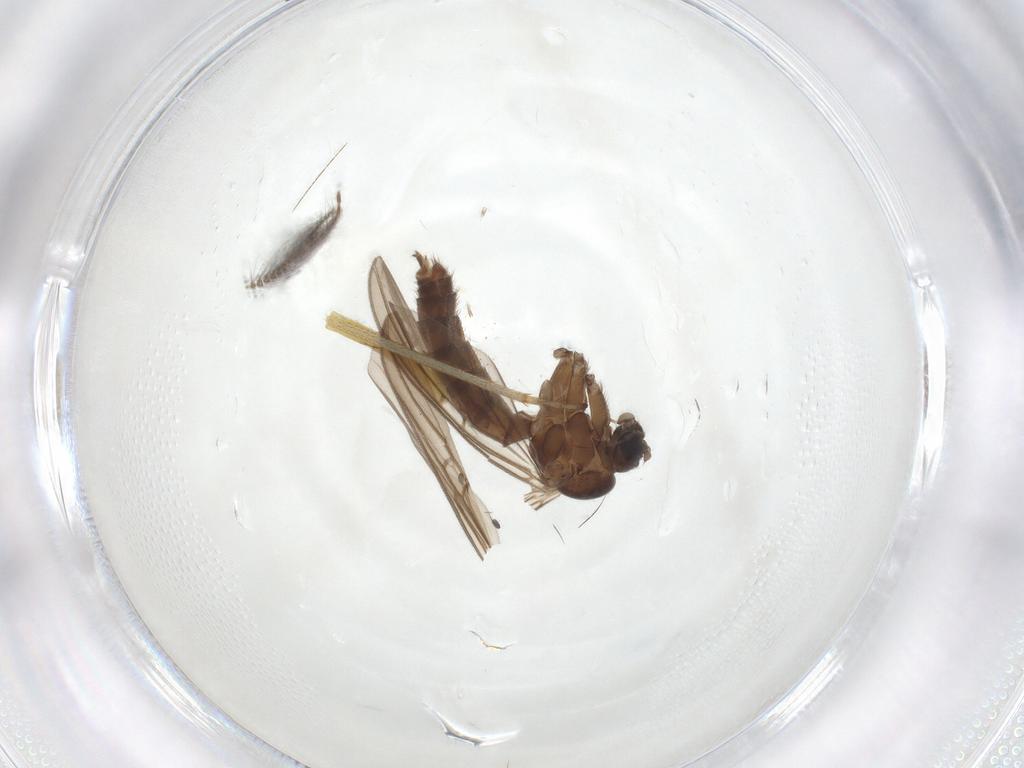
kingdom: Animalia
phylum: Arthropoda
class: Insecta
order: Diptera
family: Ceratopogonidae
